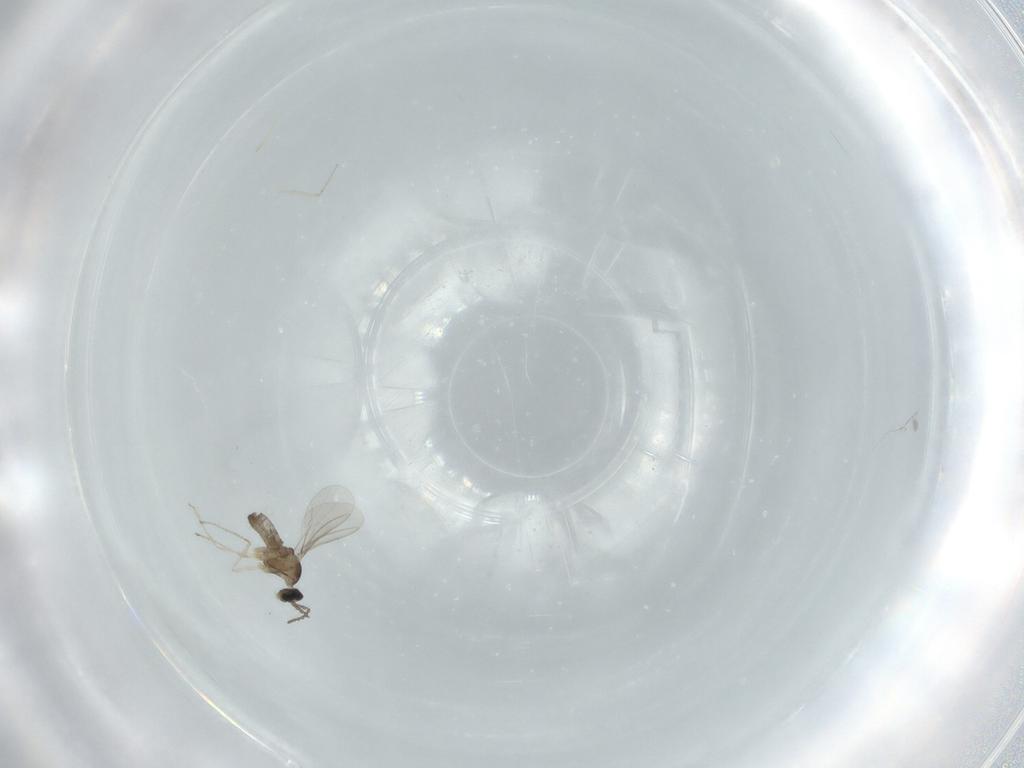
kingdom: Animalia
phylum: Arthropoda
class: Insecta
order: Diptera
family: Cecidomyiidae
